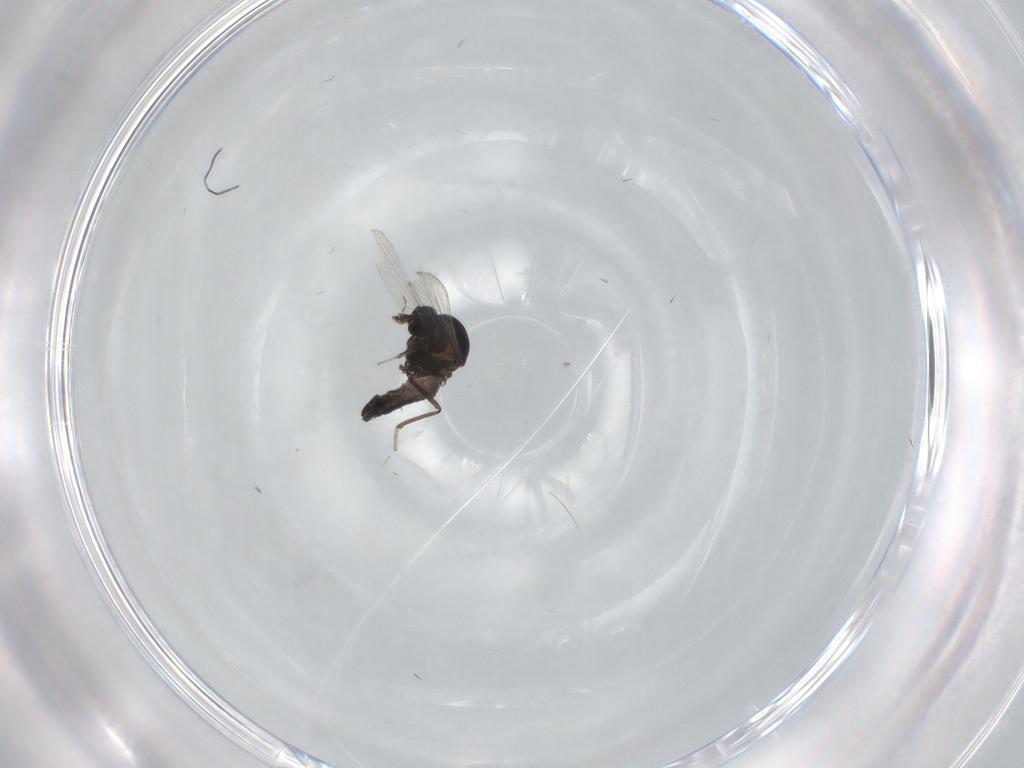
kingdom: Animalia
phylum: Arthropoda
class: Insecta
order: Diptera
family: Ceratopogonidae
